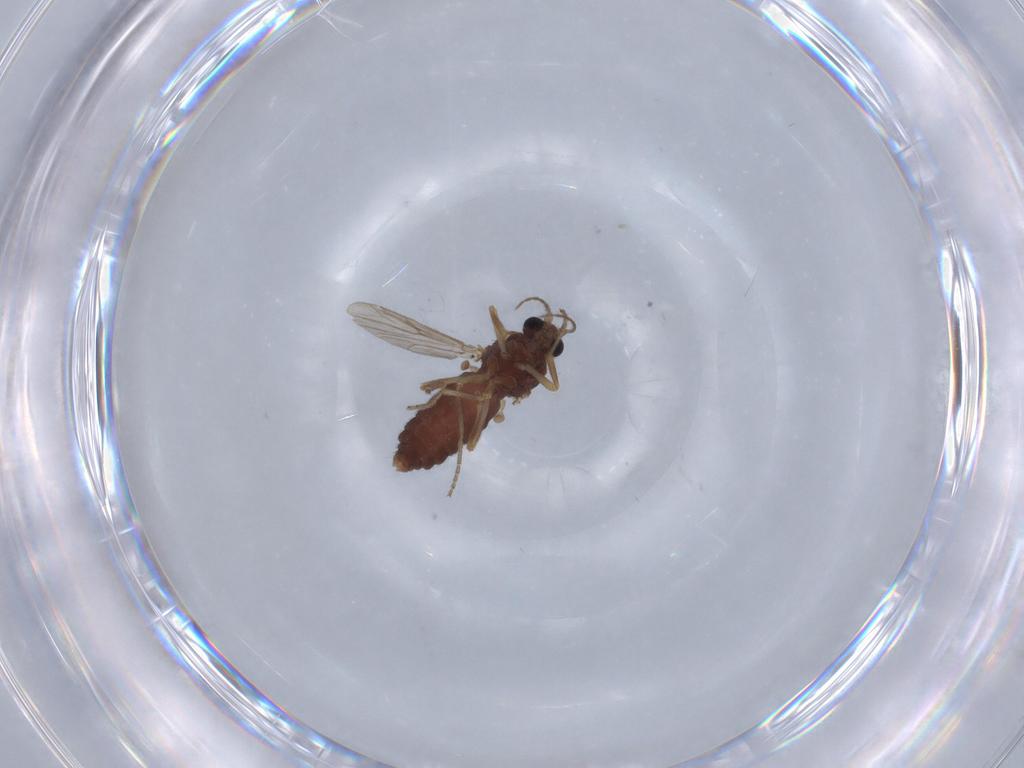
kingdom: Animalia
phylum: Arthropoda
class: Insecta
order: Diptera
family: Ceratopogonidae
